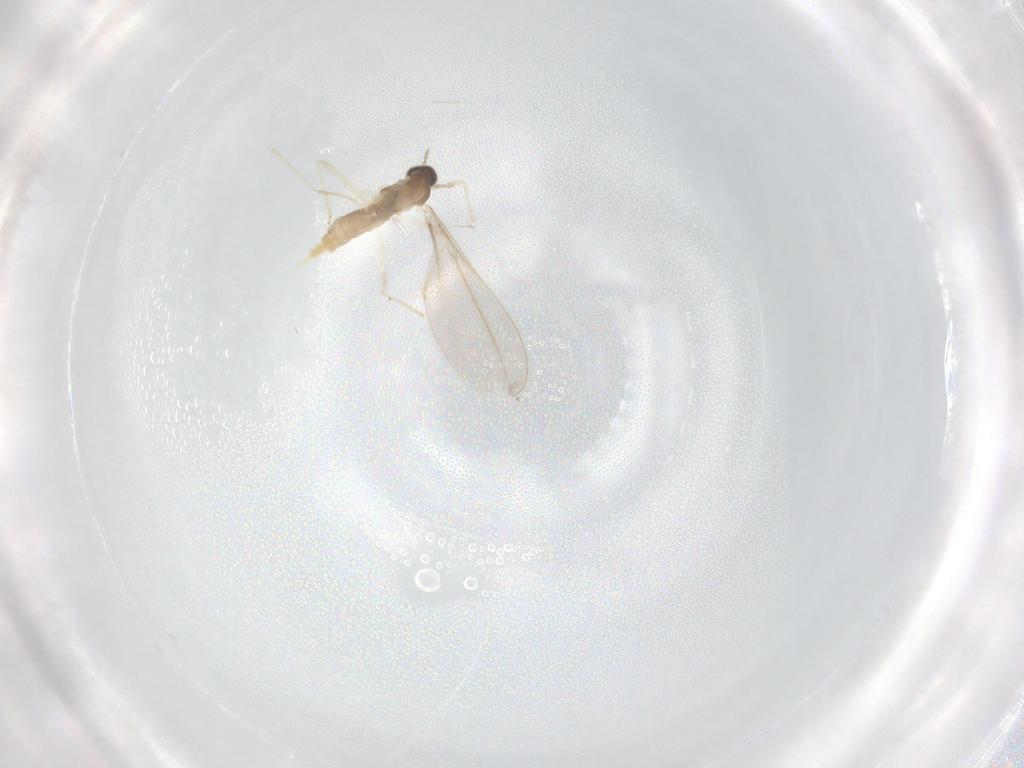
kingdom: Animalia
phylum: Arthropoda
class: Insecta
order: Diptera
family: Cecidomyiidae
